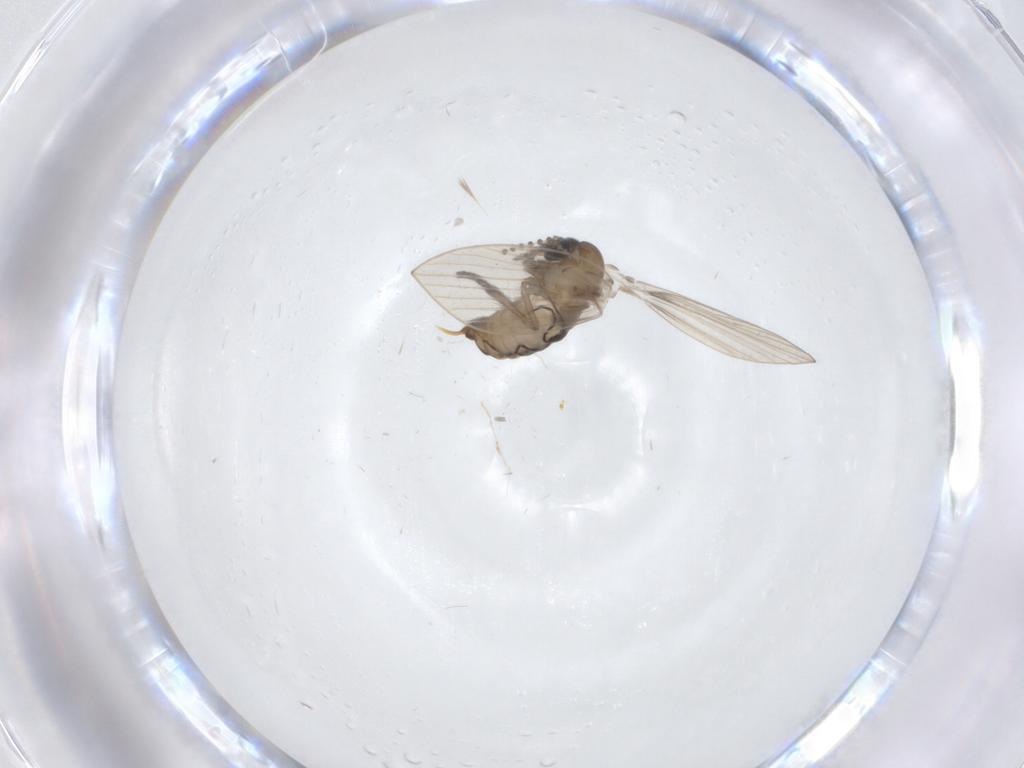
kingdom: Animalia
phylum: Arthropoda
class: Insecta
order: Diptera
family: Psychodidae
